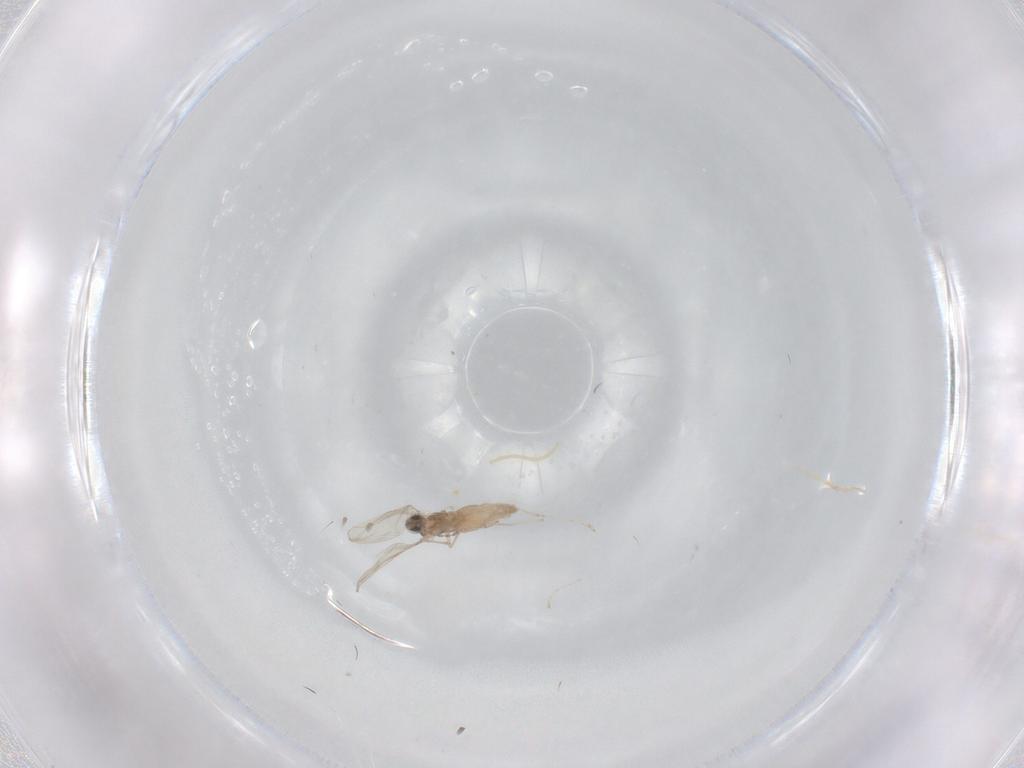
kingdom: Animalia
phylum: Arthropoda
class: Insecta
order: Diptera
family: Cecidomyiidae
